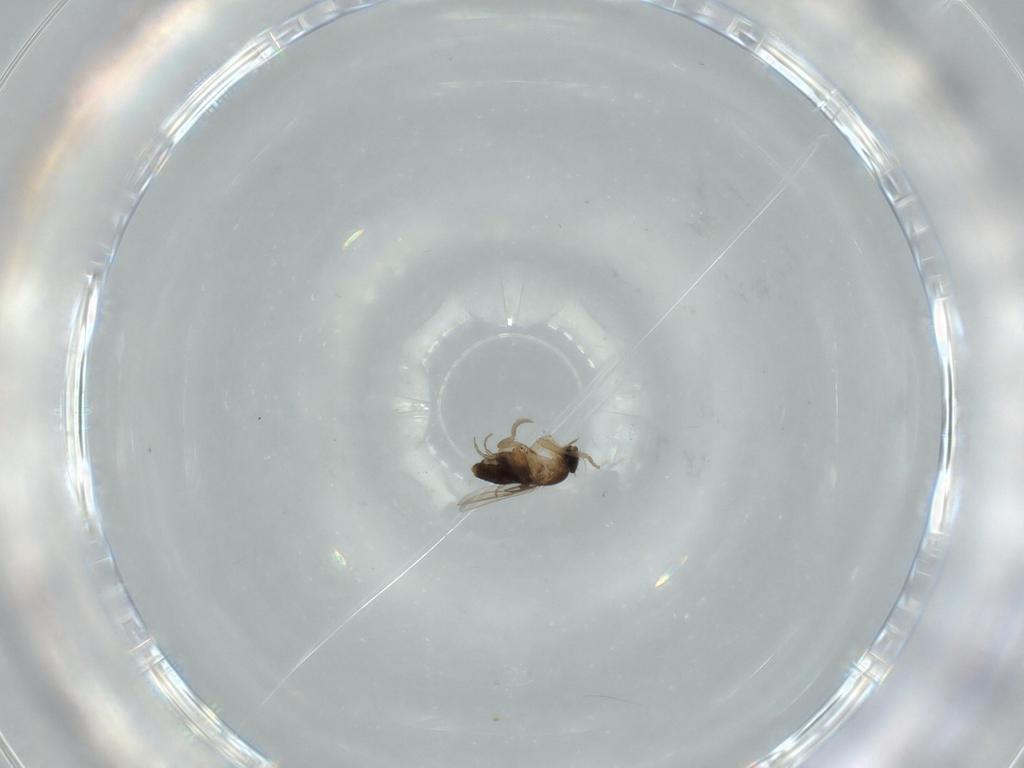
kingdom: Animalia
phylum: Arthropoda
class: Insecta
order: Diptera
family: Phoridae
